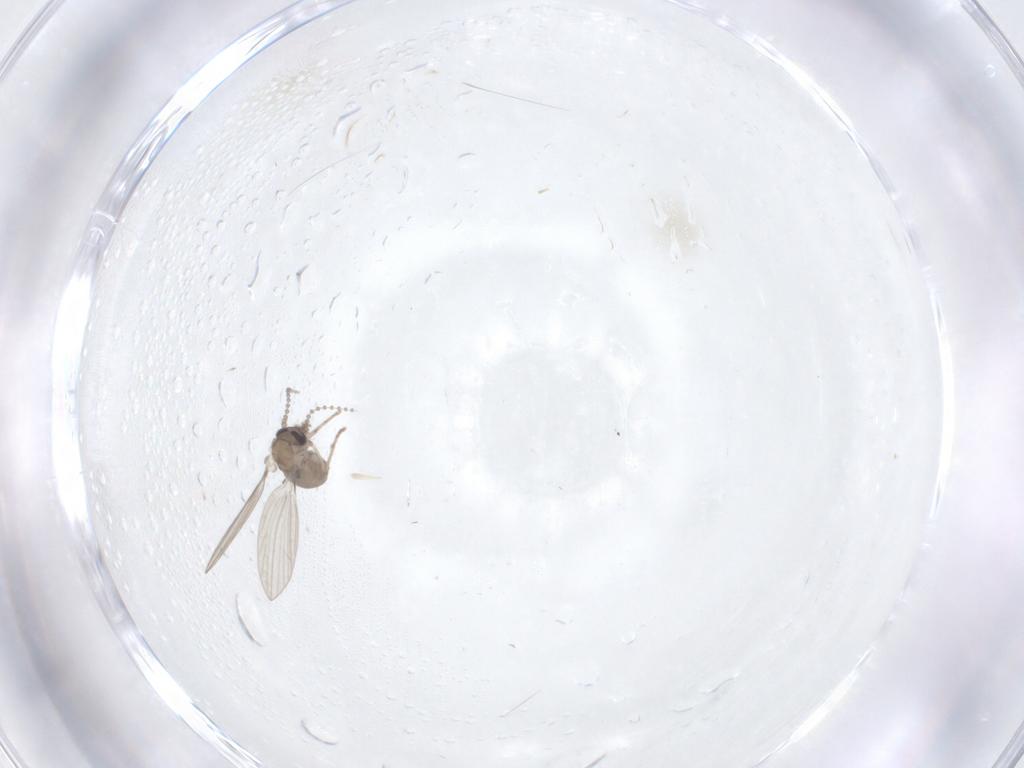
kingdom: Animalia
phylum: Arthropoda
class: Insecta
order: Diptera
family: Psychodidae
